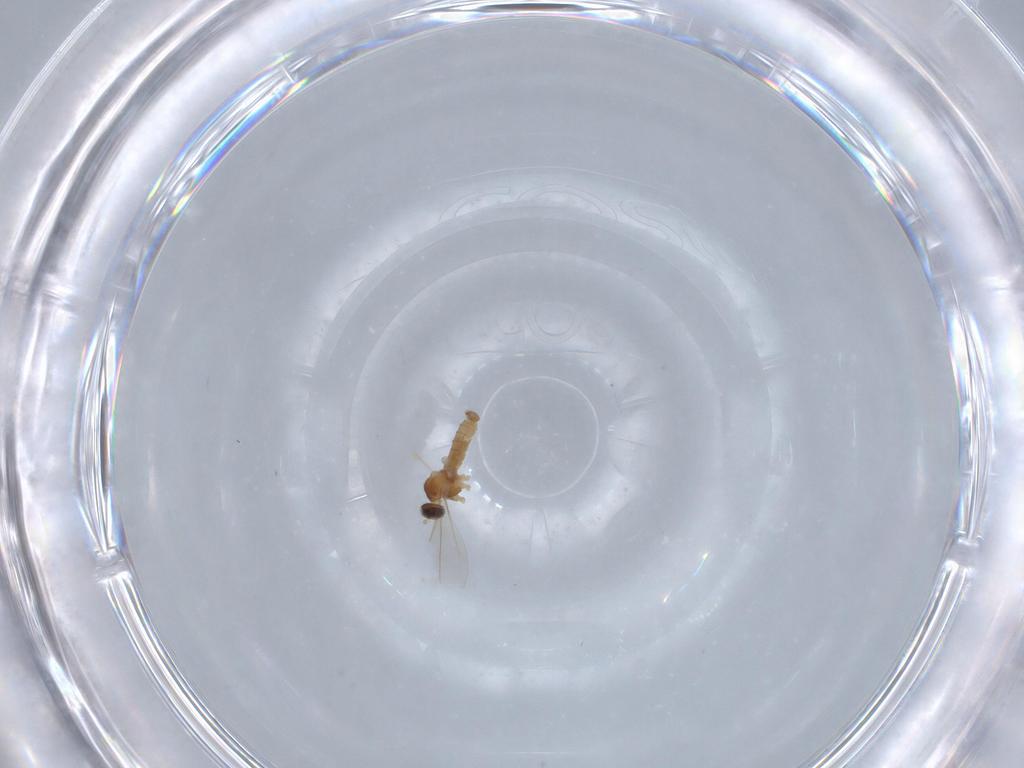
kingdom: Animalia
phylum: Arthropoda
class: Insecta
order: Diptera
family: Cecidomyiidae
